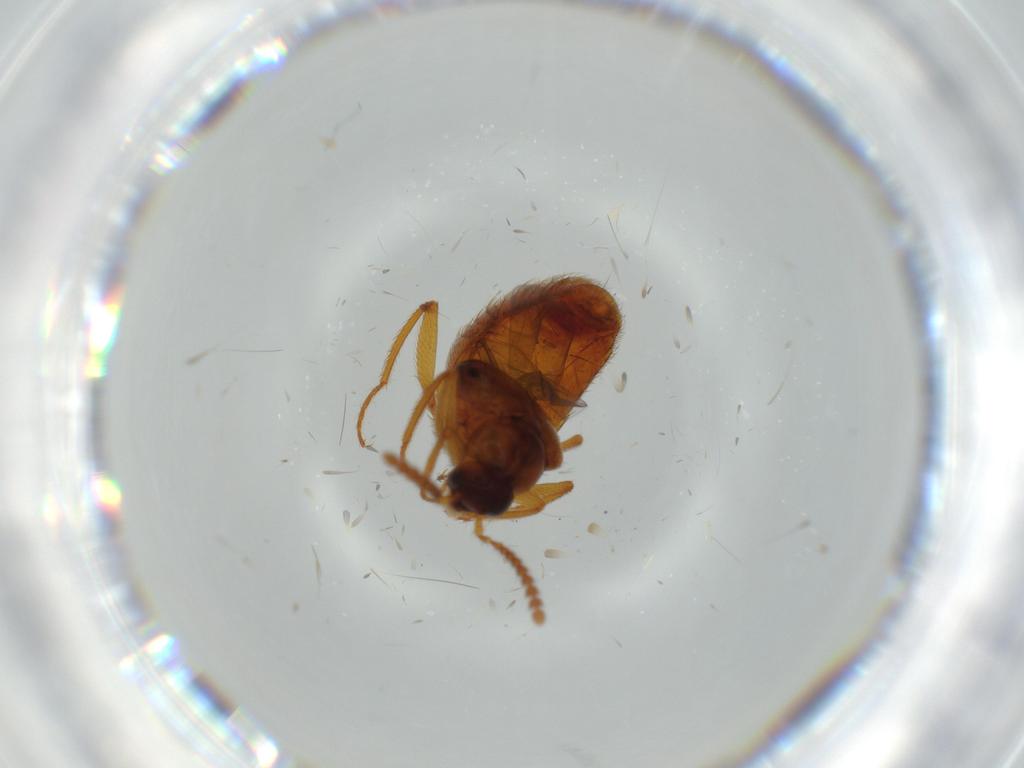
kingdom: Animalia
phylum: Arthropoda
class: Insecta
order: Coleoptera
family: Staphylinidae
